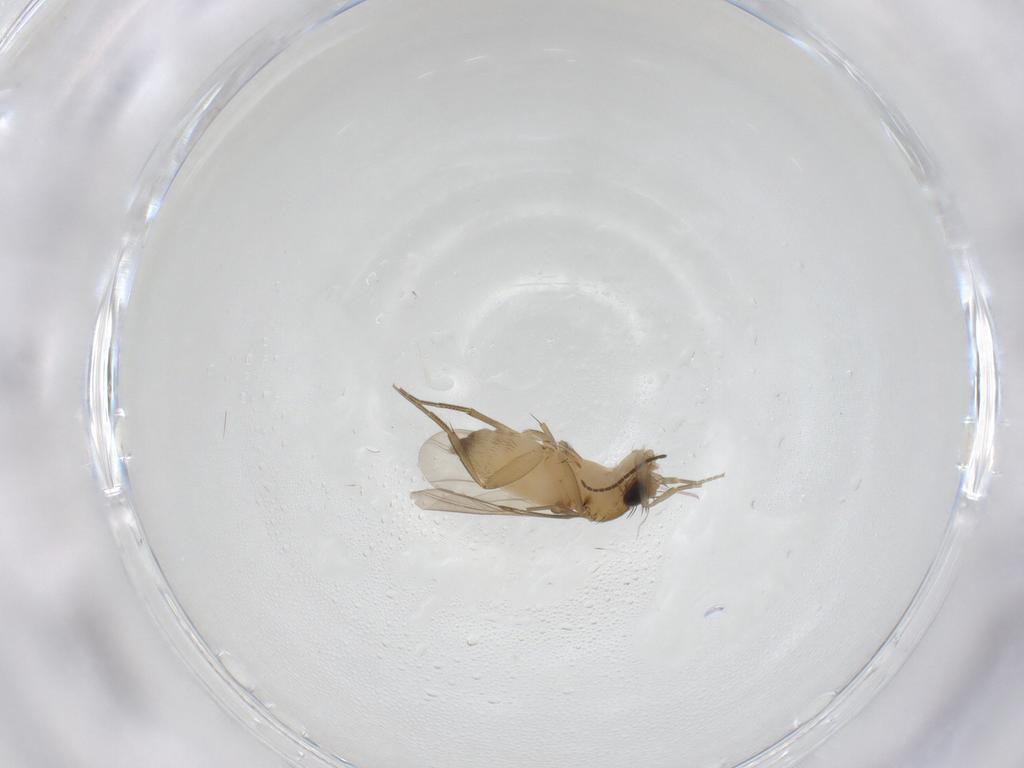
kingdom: Animalia
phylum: Arthropoda
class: Insecta
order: Diptera
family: Phoridae
